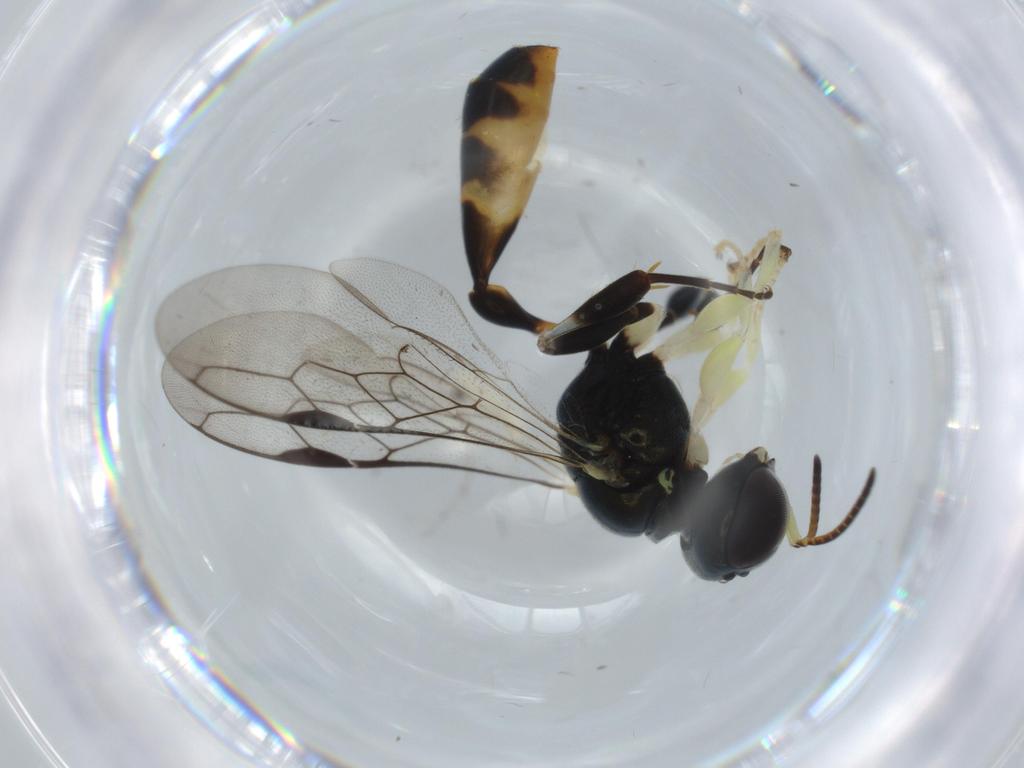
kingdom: Animalia
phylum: Arthropoda
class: Insecta
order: Hymenoptera
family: Crabronidae
